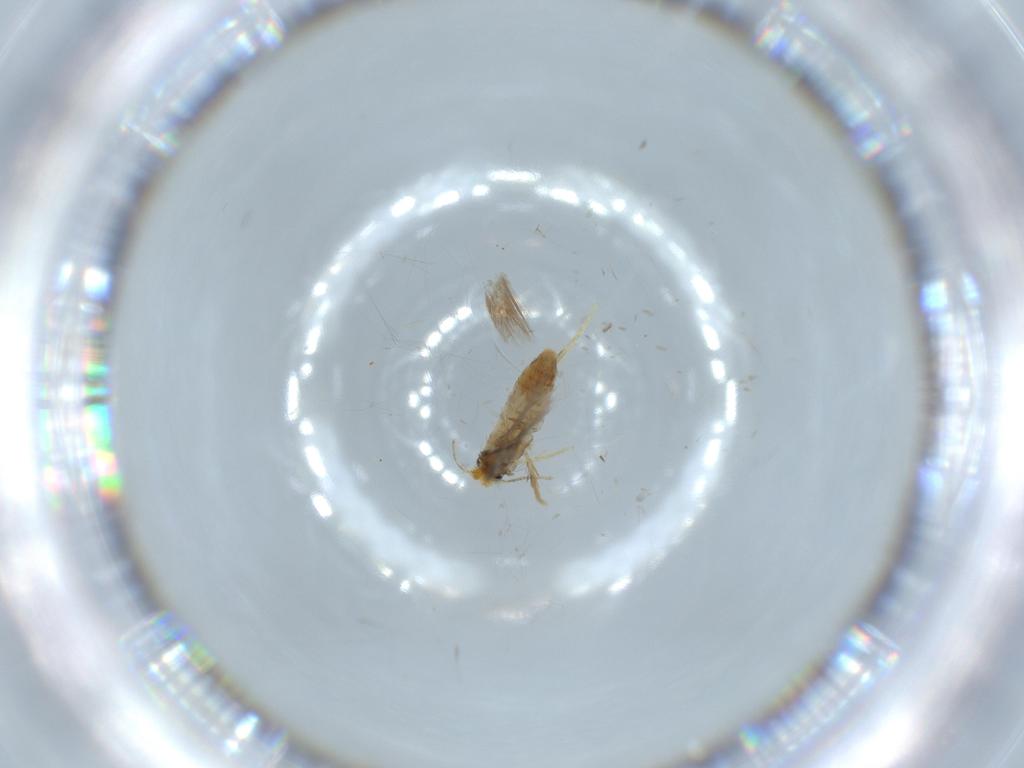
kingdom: Animalia
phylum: Arthropoda
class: Insecta
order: Lepidoptera
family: Nepticulidae
